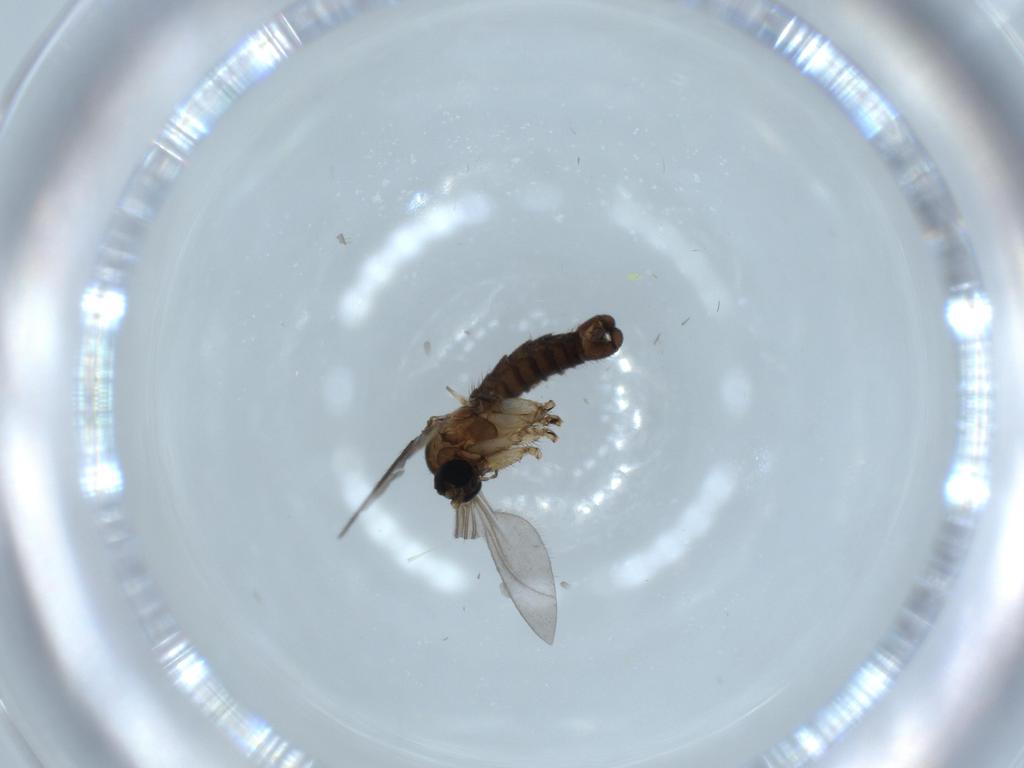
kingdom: Animalia
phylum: Arthropoda
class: Insecta
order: Diptera
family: Sciaridae
